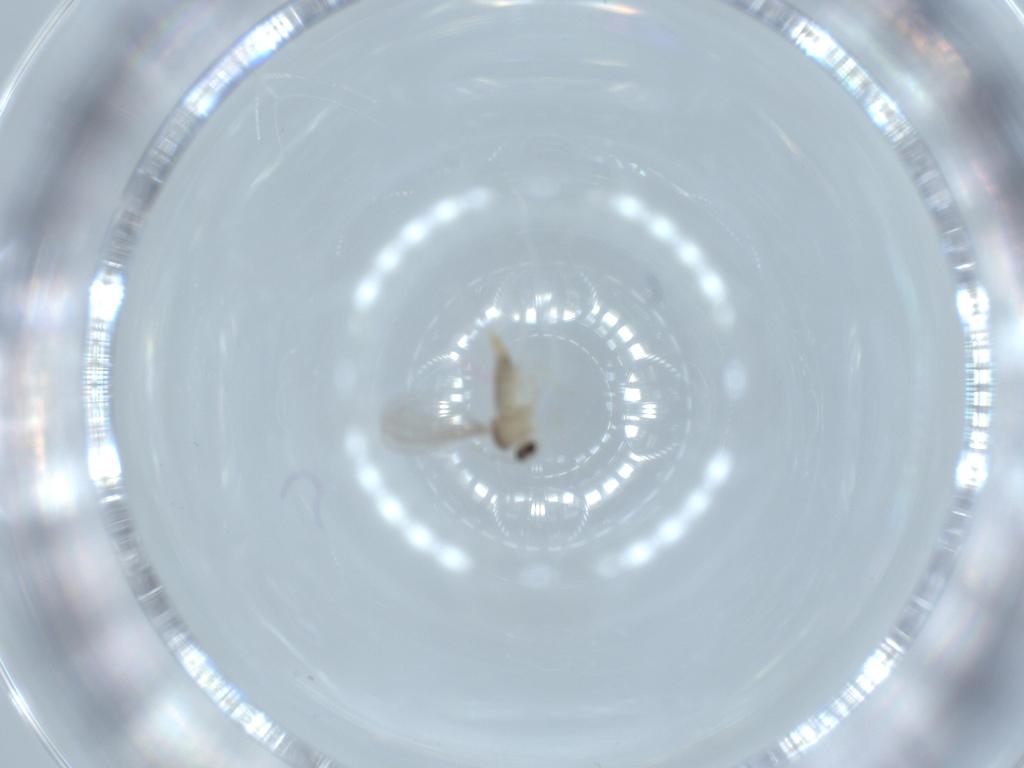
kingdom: Animalia
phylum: Arthropoda
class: Insecta
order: Diptera
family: Cecidomyiidae
